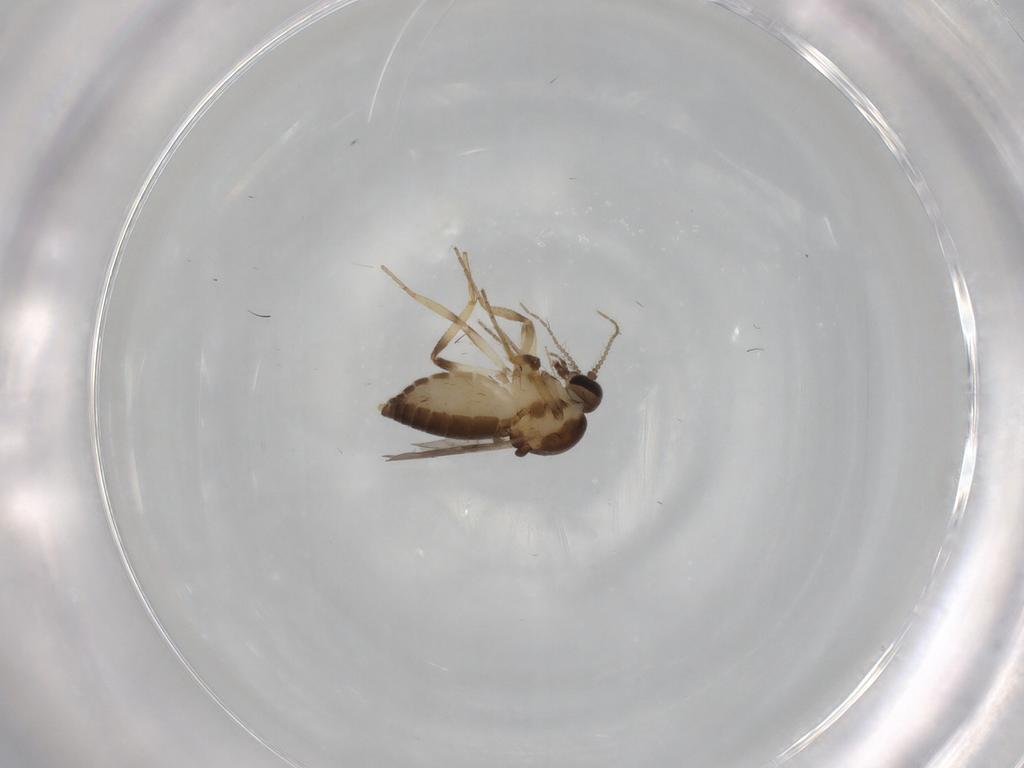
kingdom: Animalia
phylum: Arthropoda
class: Insecta
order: Diptera
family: Ceratopogonidae
